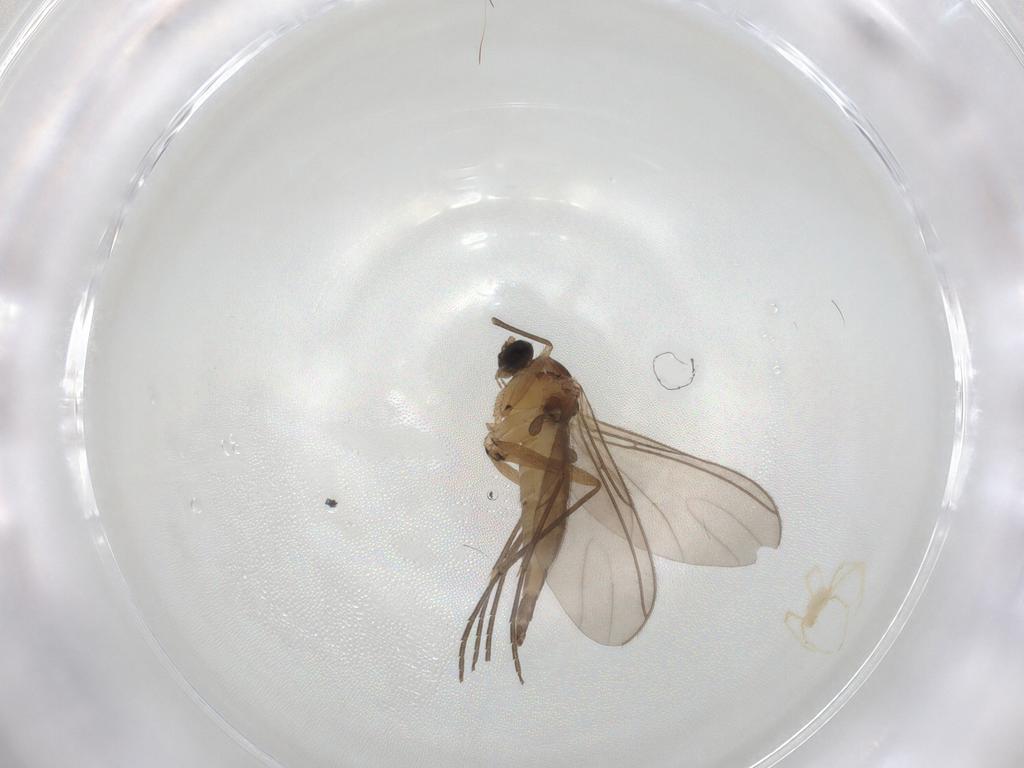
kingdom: Animalia
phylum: Arthropoda
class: Insecta
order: Diptera
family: Sciaridae
